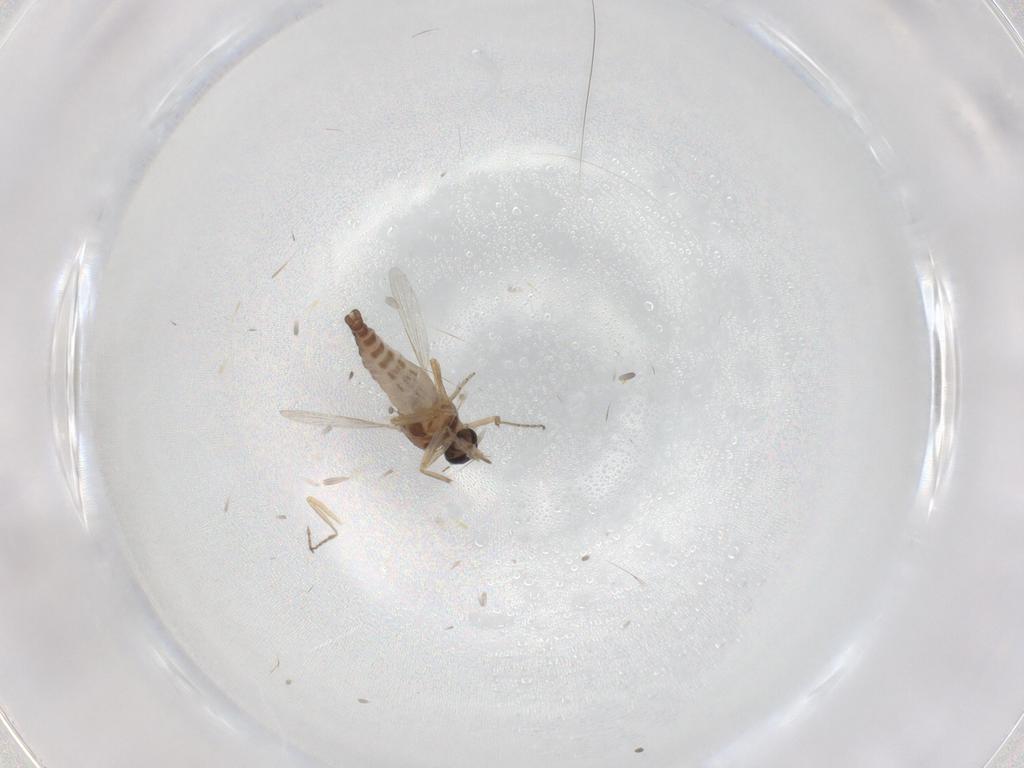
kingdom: Animalia
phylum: Arthropoda
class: Insecta
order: Diptera
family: Ceratopogonidae
